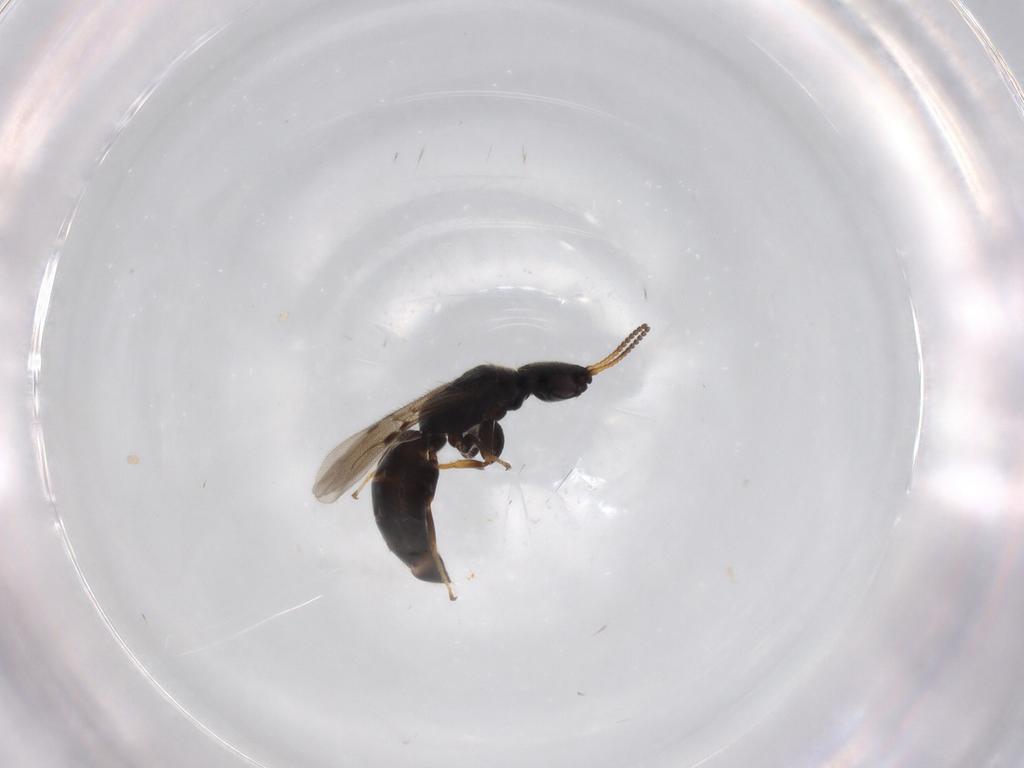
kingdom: Animalia
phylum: Arthropoda
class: Insecta
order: Hymenoptera
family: Bethylidae
